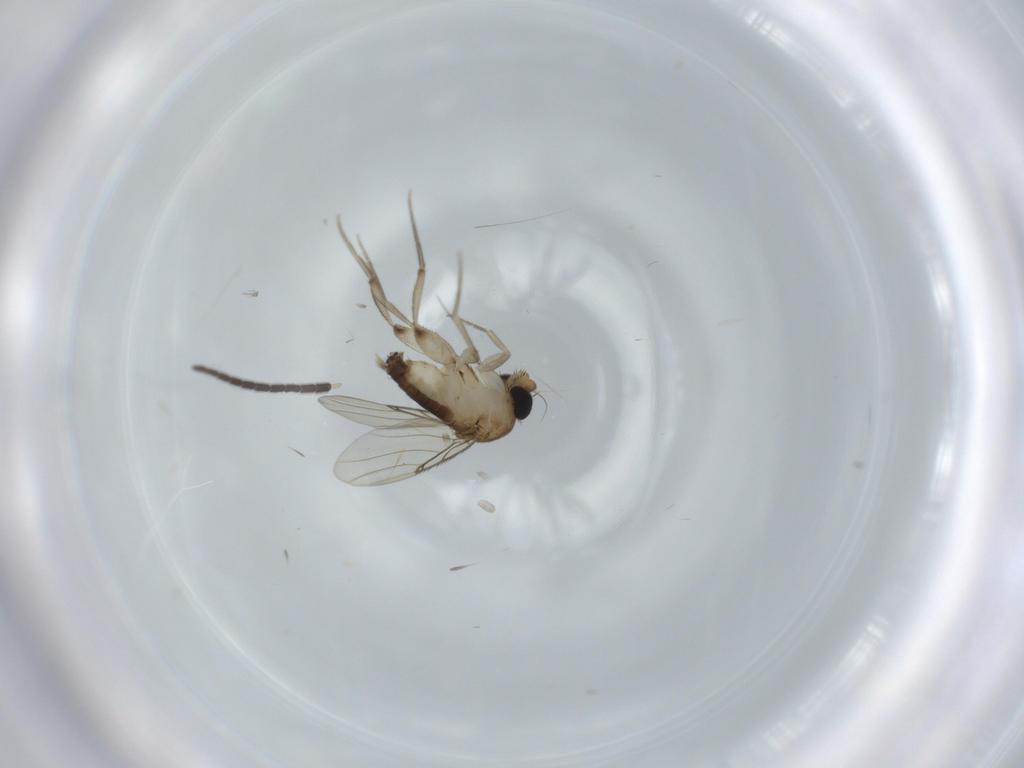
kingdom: Animalia
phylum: Arthropoda
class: Insecta
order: Diptera
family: Phoridae
